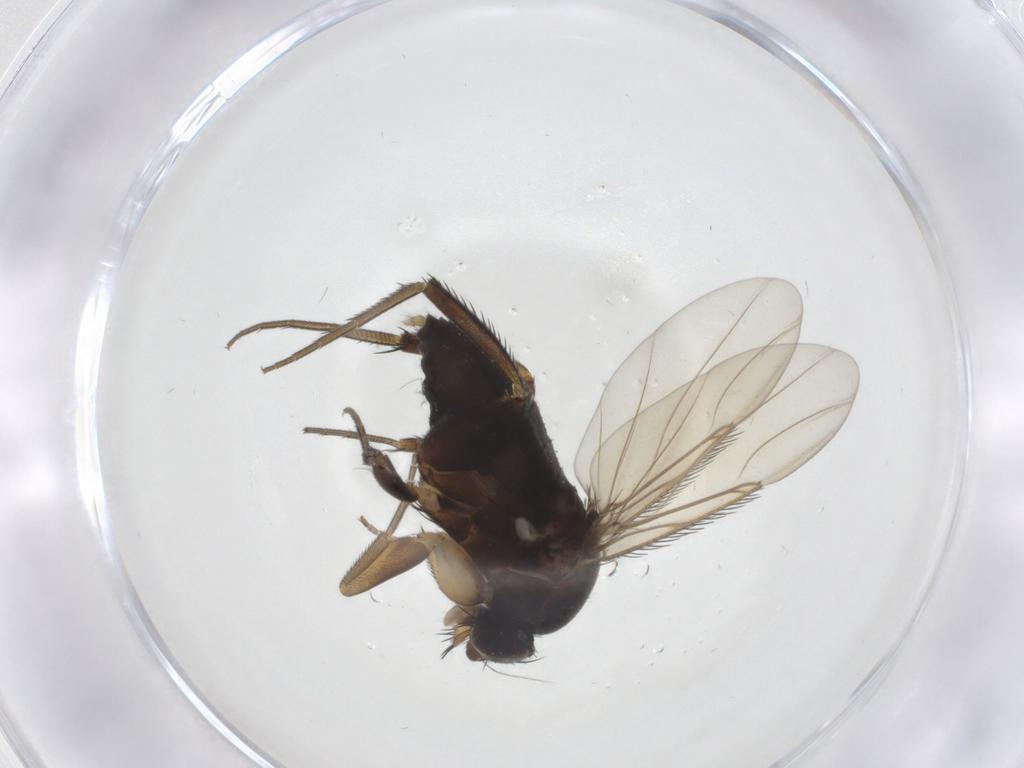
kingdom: Animalia
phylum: Arthropoda
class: Insecta
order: Diptera
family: Phoridae
